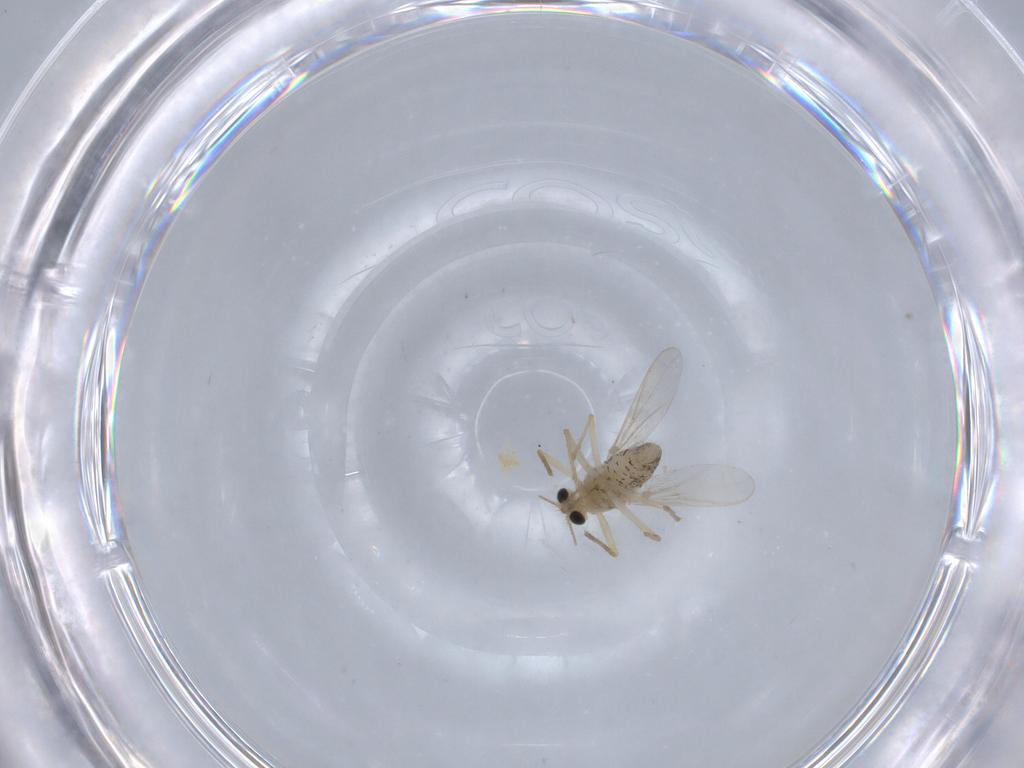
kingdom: Animalia
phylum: Arthropoda
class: Insecta
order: Diptera
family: Chironomidae
